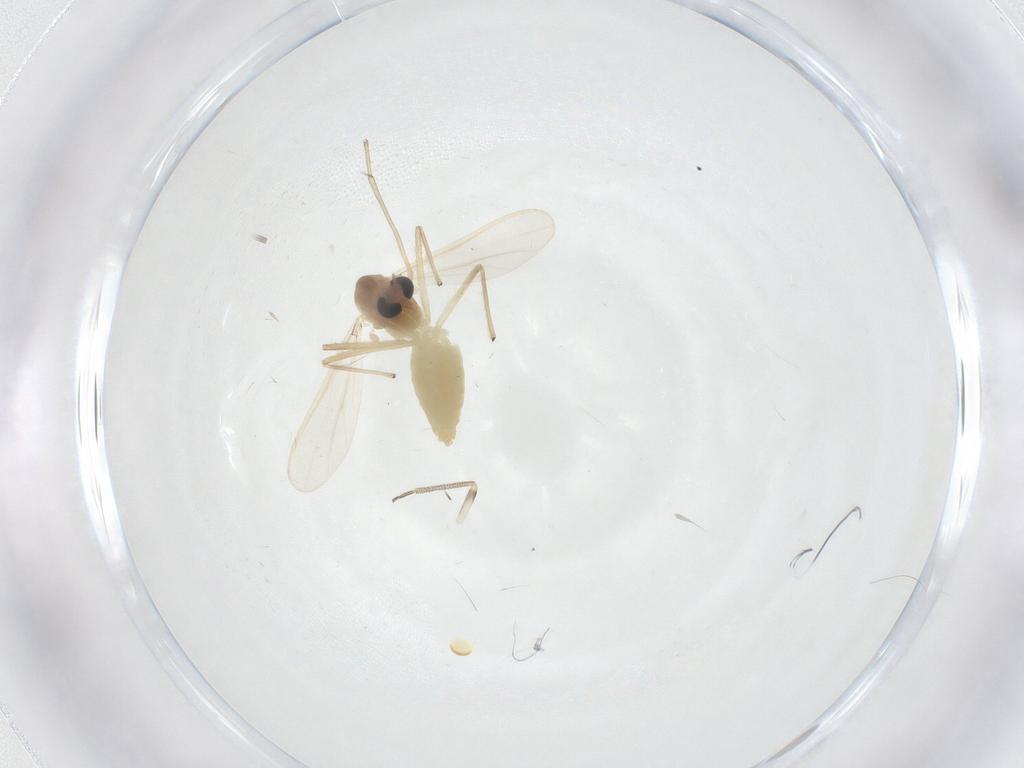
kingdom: Animalia
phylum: Arthropoda
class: Insecta
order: Diptera
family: Chironomidae
